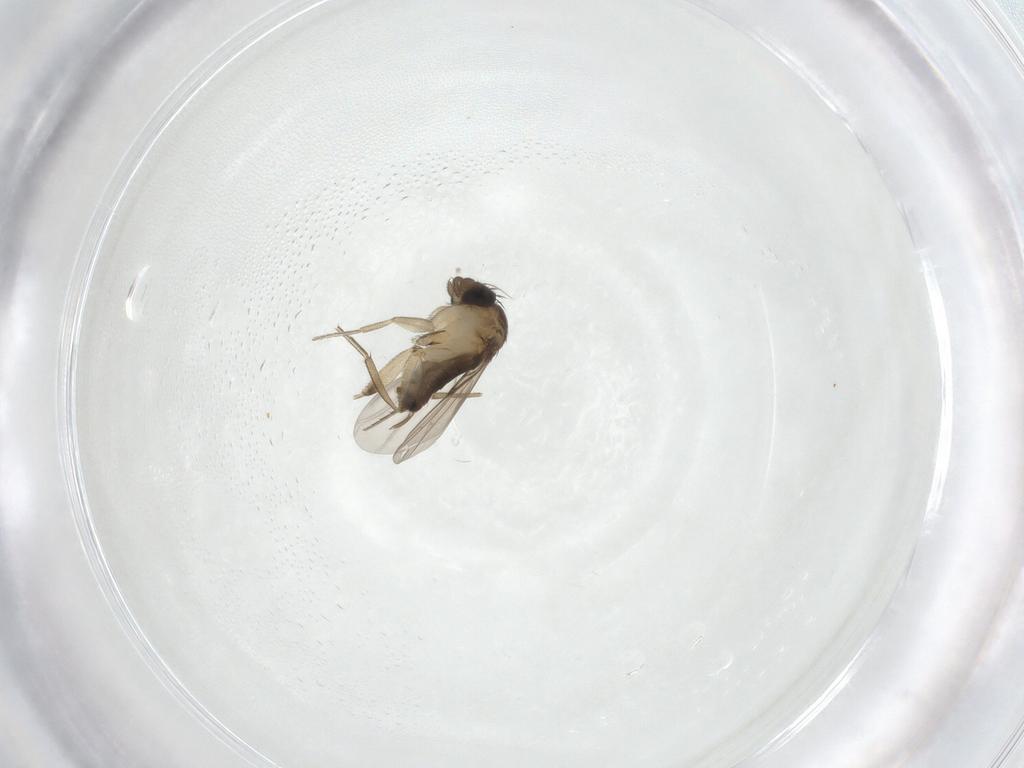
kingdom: Animalia
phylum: Arthropoda
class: Insecta
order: Diptera
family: Phoridae
